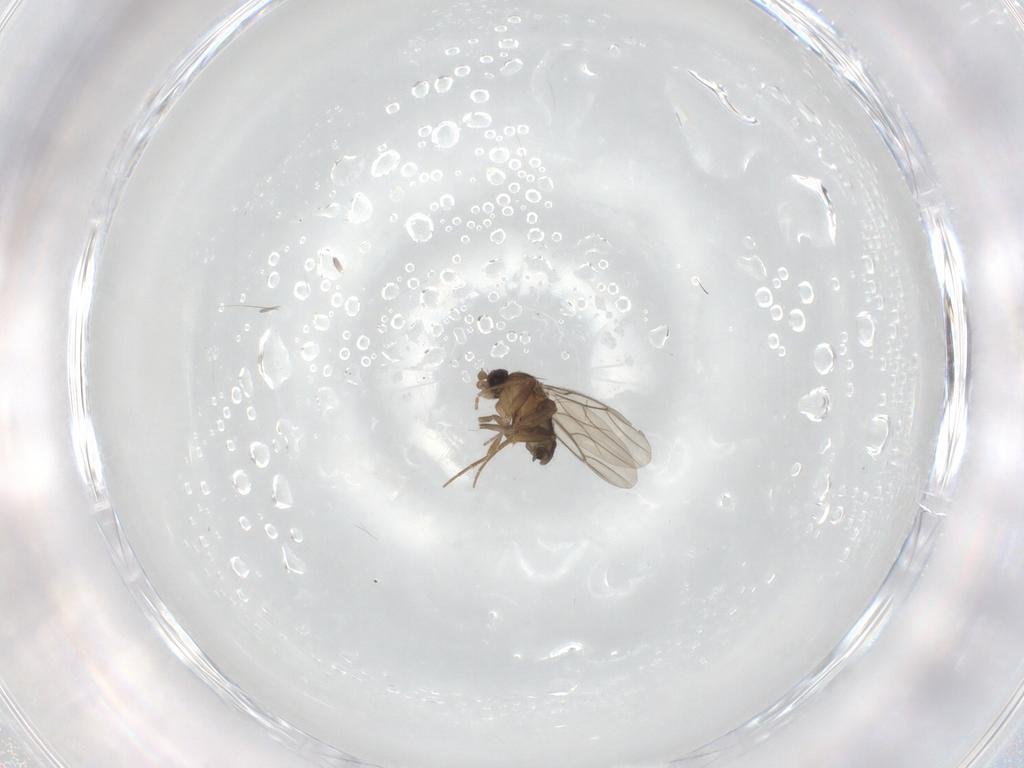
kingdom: Animalia
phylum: Arthropoda
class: Insecta
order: Diptera
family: Phoridae
